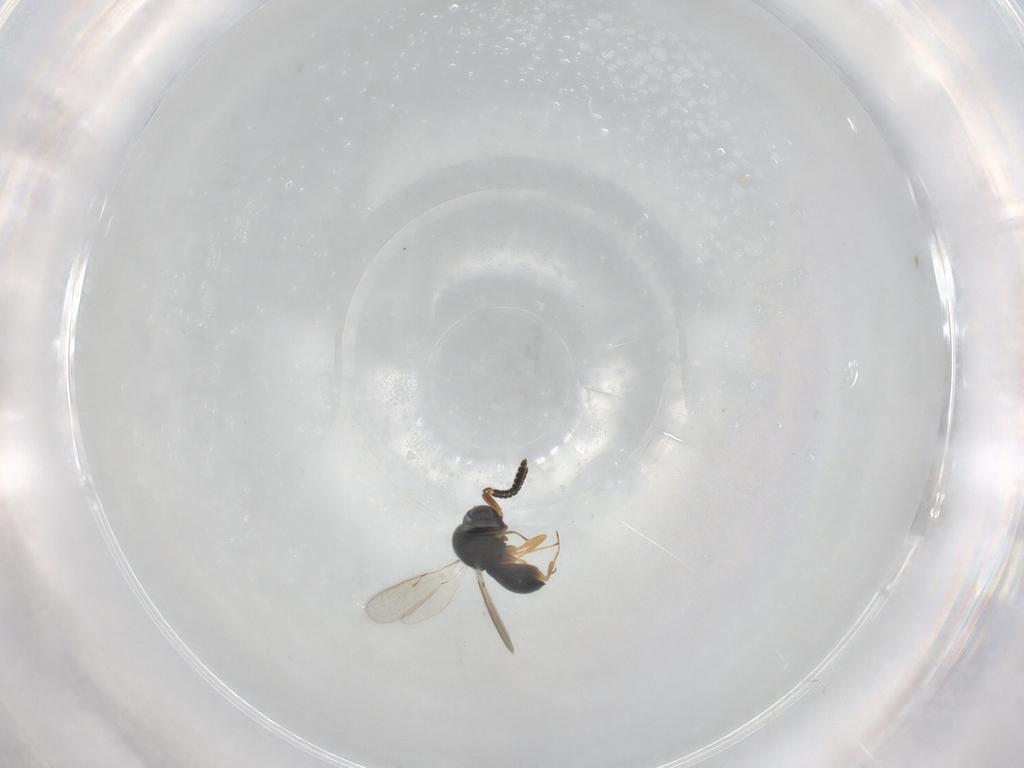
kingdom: Animalia
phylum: Arthropoda
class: Insecta
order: Hymenoptera
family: Scelionidae
